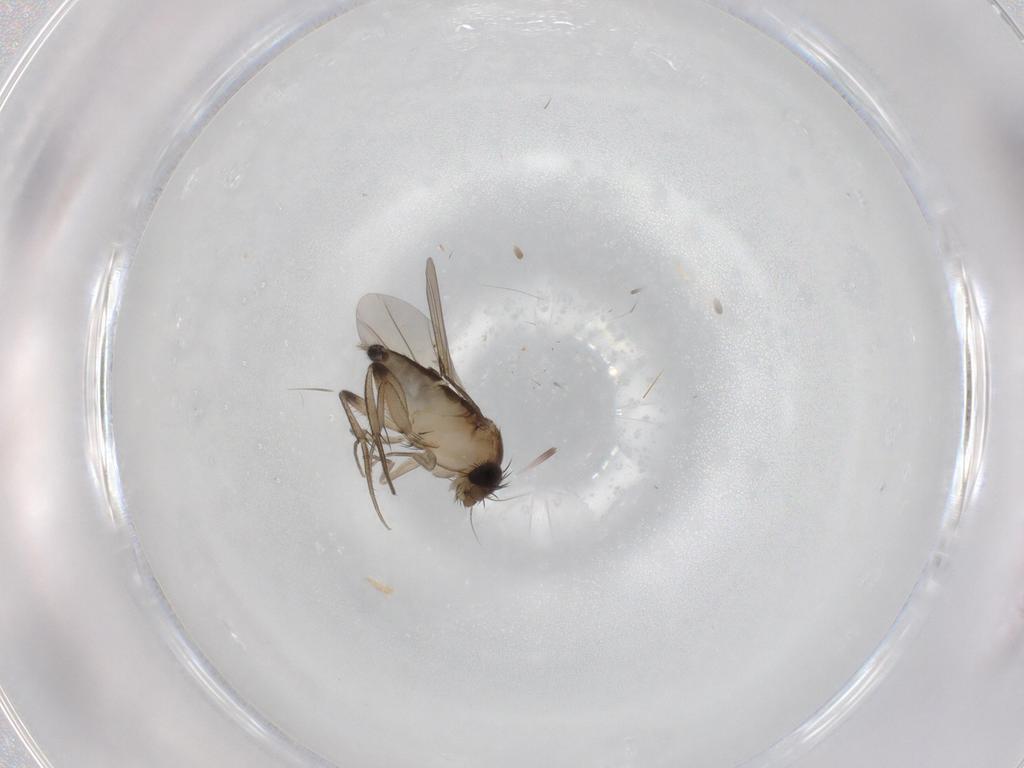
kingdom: Animalia
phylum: Arthropoda
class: Insecta
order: Diptera
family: Phoridae
